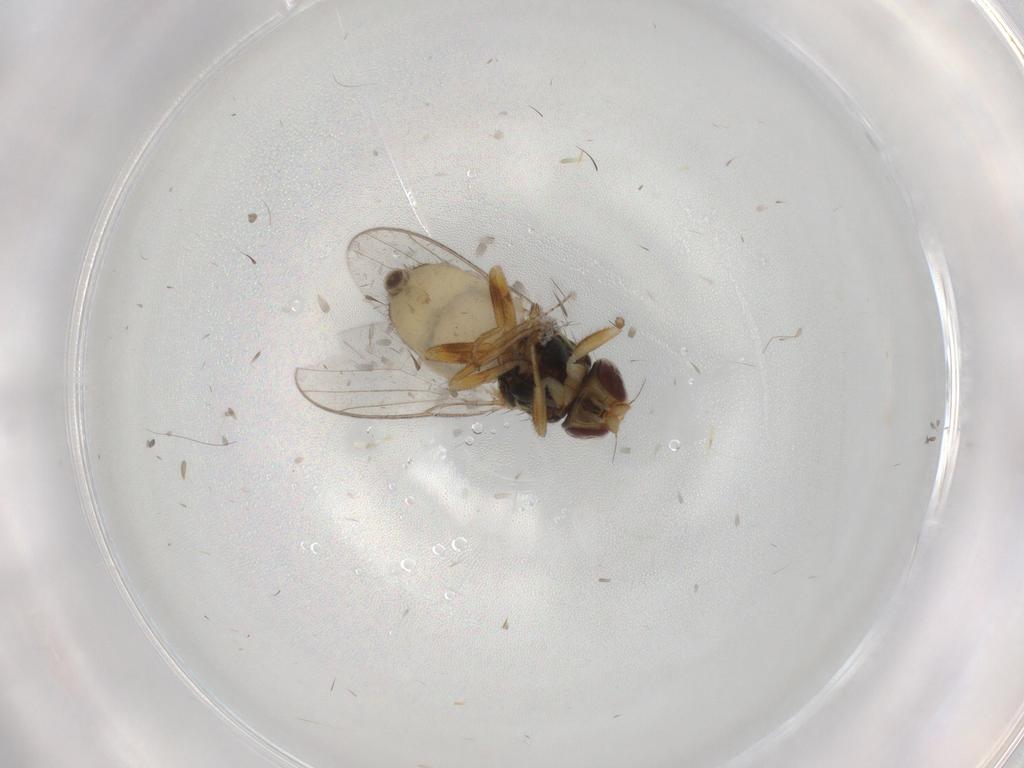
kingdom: Animalia
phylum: Arthropoda
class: Insecta
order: Diptera
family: Chloropidae
